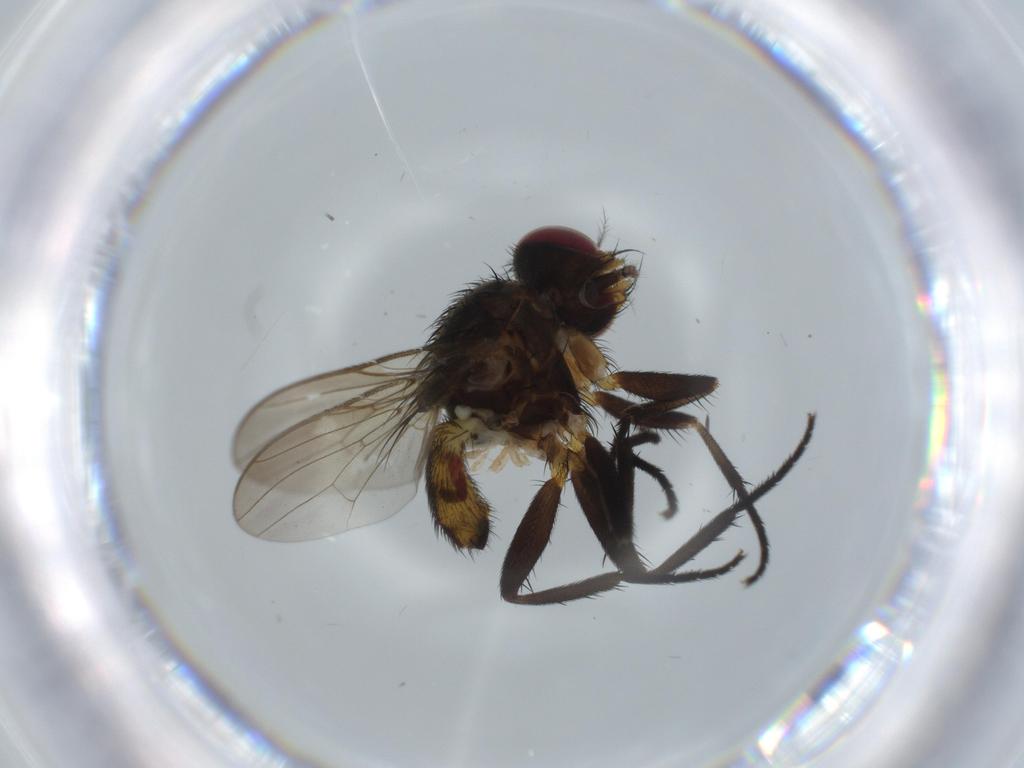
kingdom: Animalia
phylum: Arthropoda
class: Insecta
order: Diptera
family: Anthomyiidae
